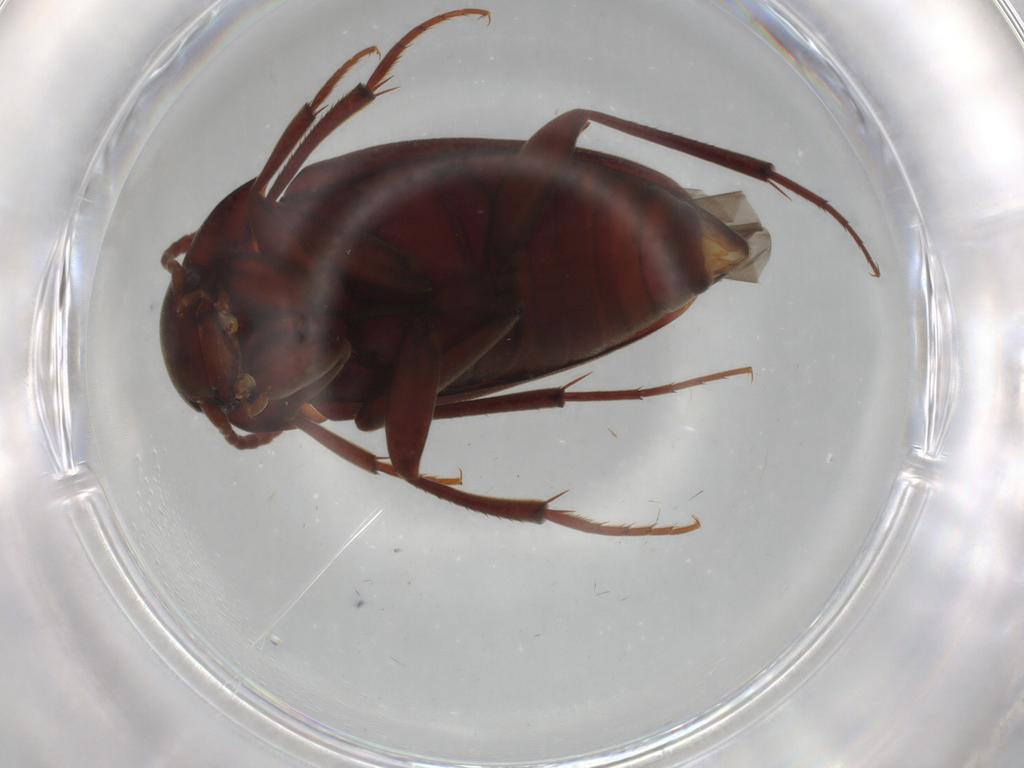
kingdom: Animalia
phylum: Arthropoda
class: Insecta
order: Coleoptera
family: Leiodidae
